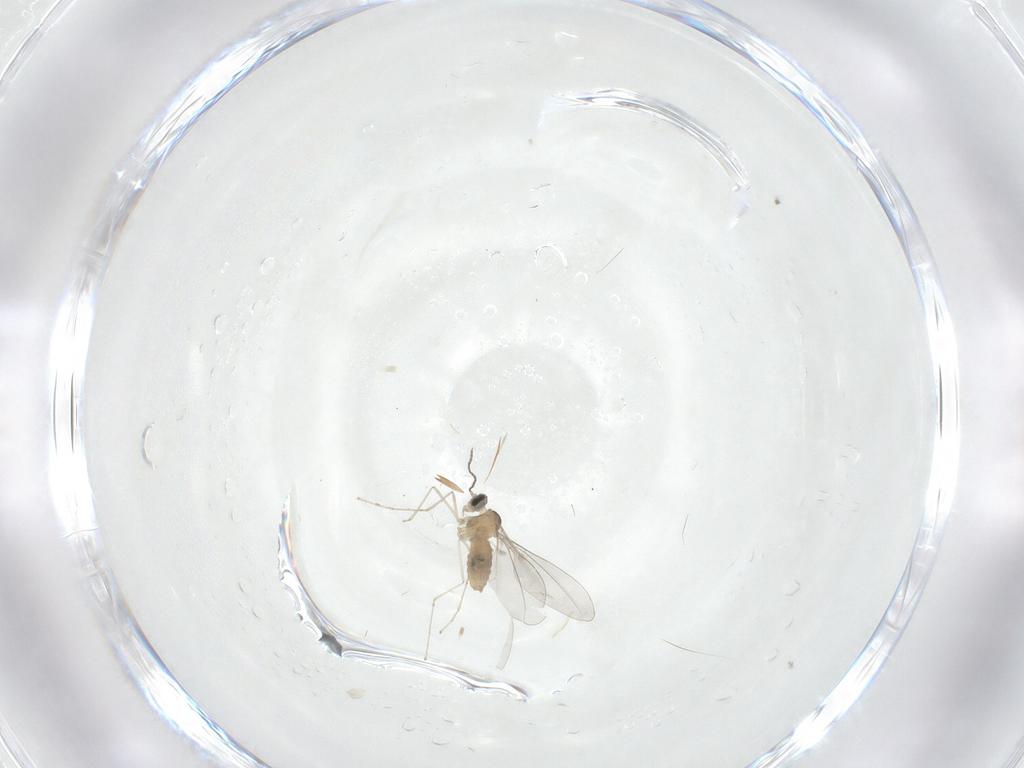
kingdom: Animalia
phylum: Arthropoda
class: Insecta
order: Diptera
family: Cecidomyiidae
